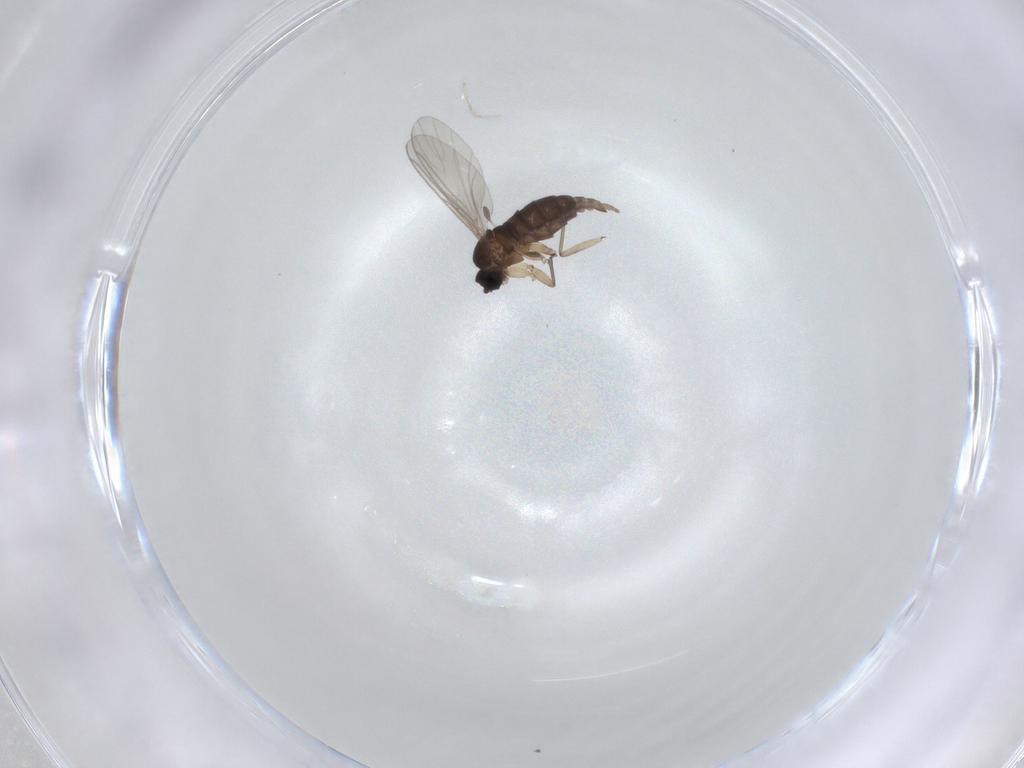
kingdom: Animalia
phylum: Arthropoda
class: Insecta
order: Diptera
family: Sciaridae
